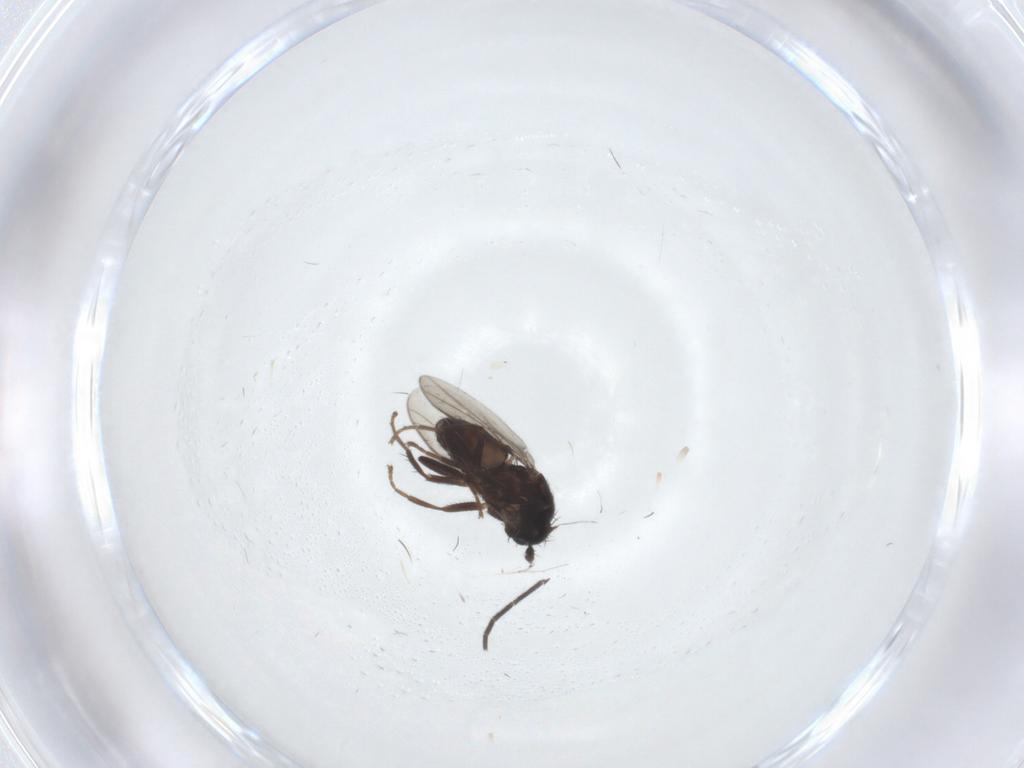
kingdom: Animalia
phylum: Arthropoda
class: Insecta
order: Diptera
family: Sciaridae
